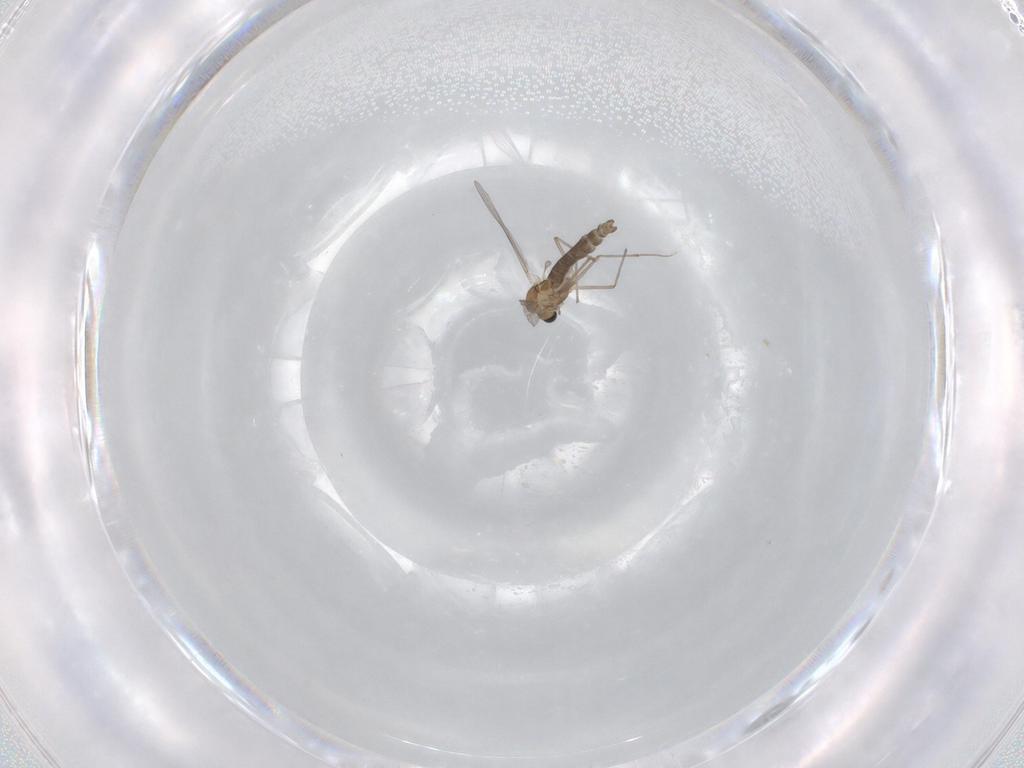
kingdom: Animalia
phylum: Arthropoda
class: Insecta
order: Diptera
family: Chironomidae
